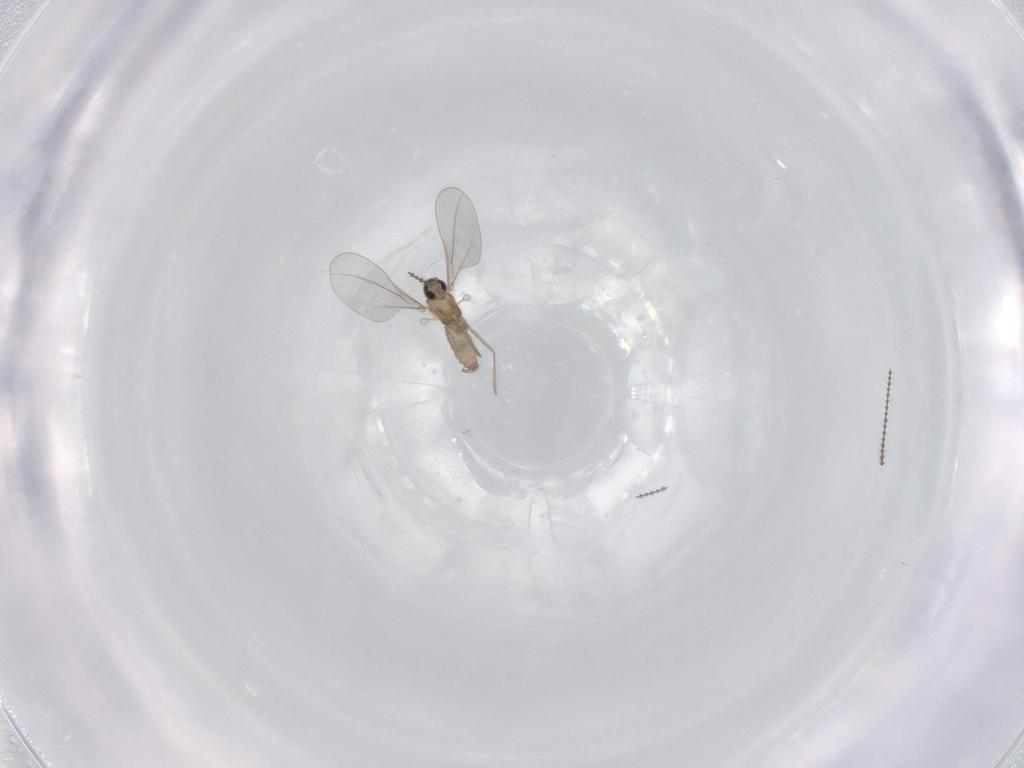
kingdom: Animalia
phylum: Arthropoda
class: Insecta
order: Diptera
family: Cecidomyiidae
